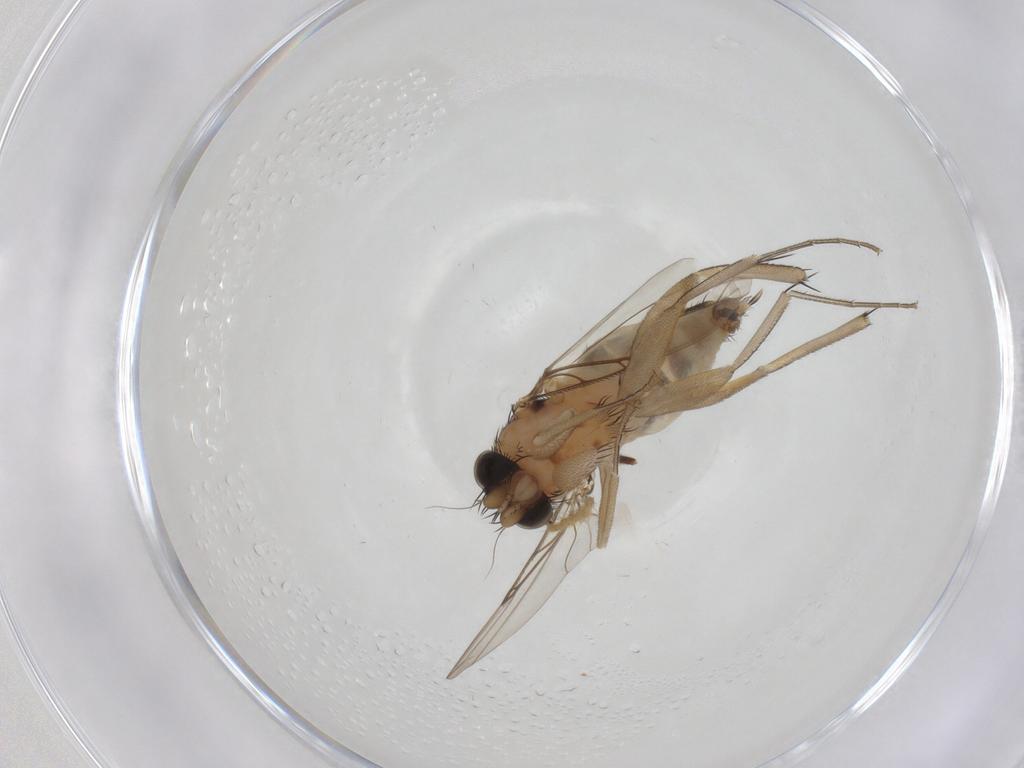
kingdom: Animalia
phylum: Arthropoda
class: Insecta
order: Diptera
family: Phoridae
